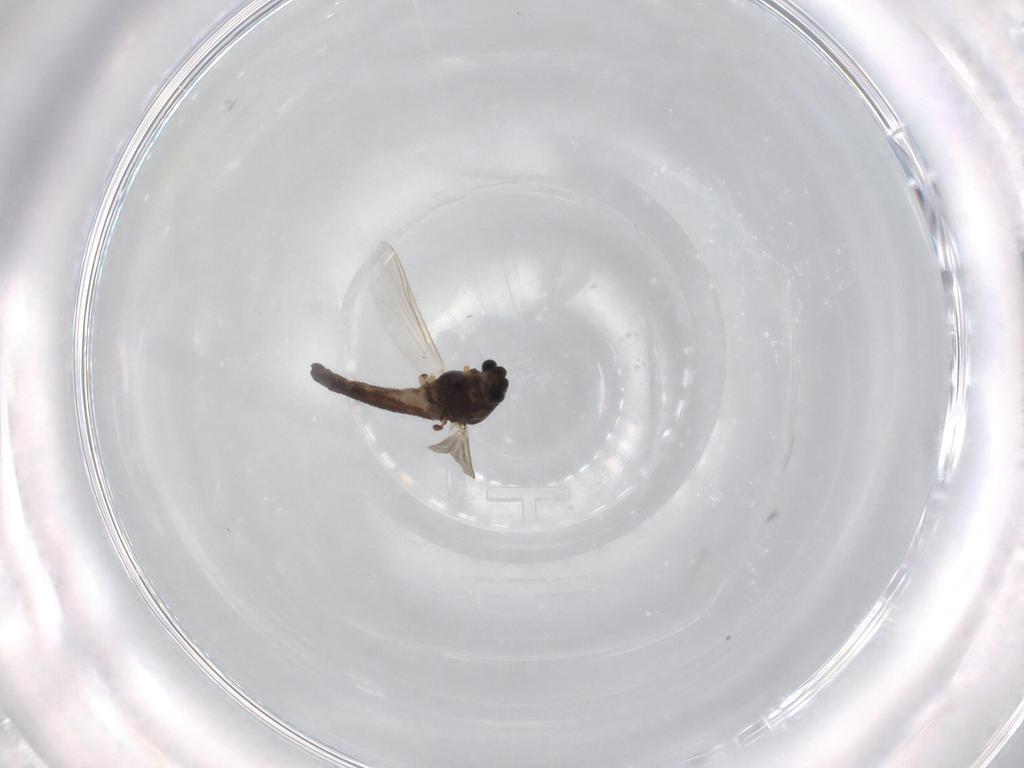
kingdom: Animalia
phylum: Arthropoda
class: Insecta
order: Diptera
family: Chironomidae
